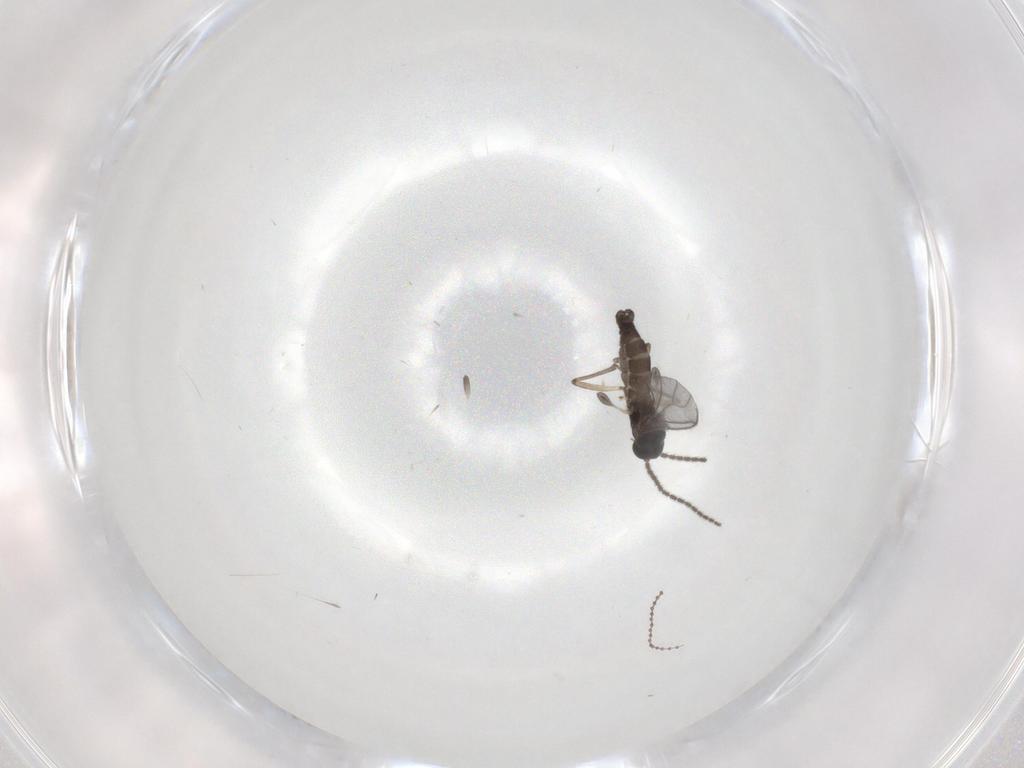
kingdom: Animalia
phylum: Arthropoda
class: Insecta
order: Diptera
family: Sciaridae
